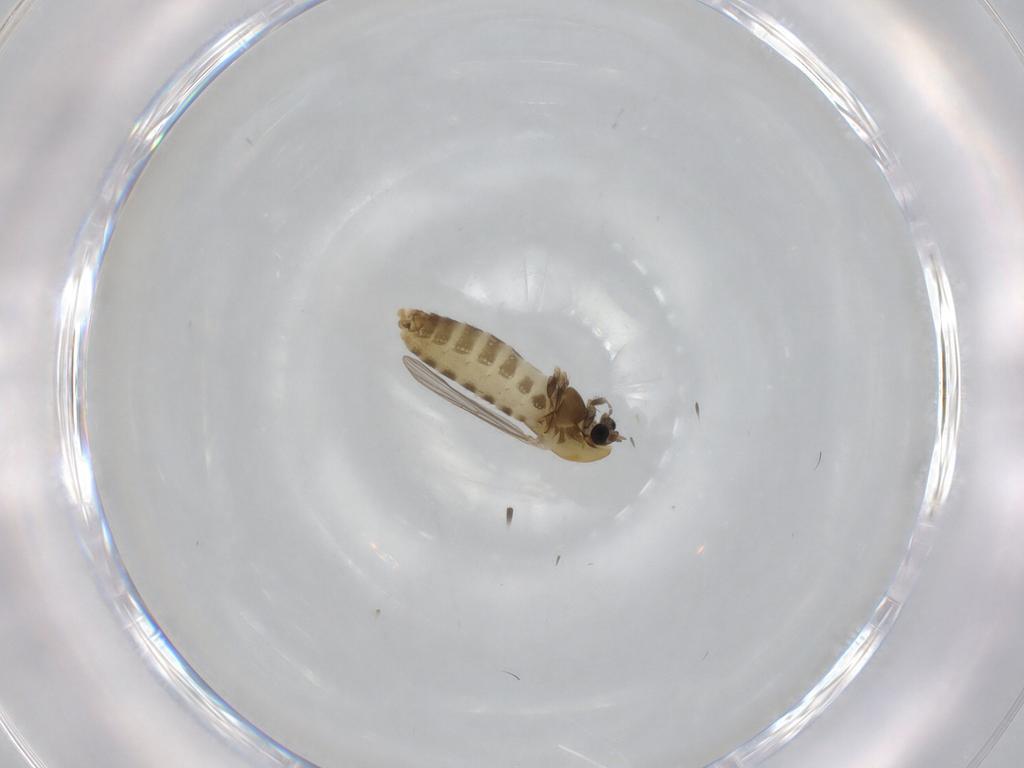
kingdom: Animalia
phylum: Arthropoda
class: Insecta
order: Diptera
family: Chironomidae
